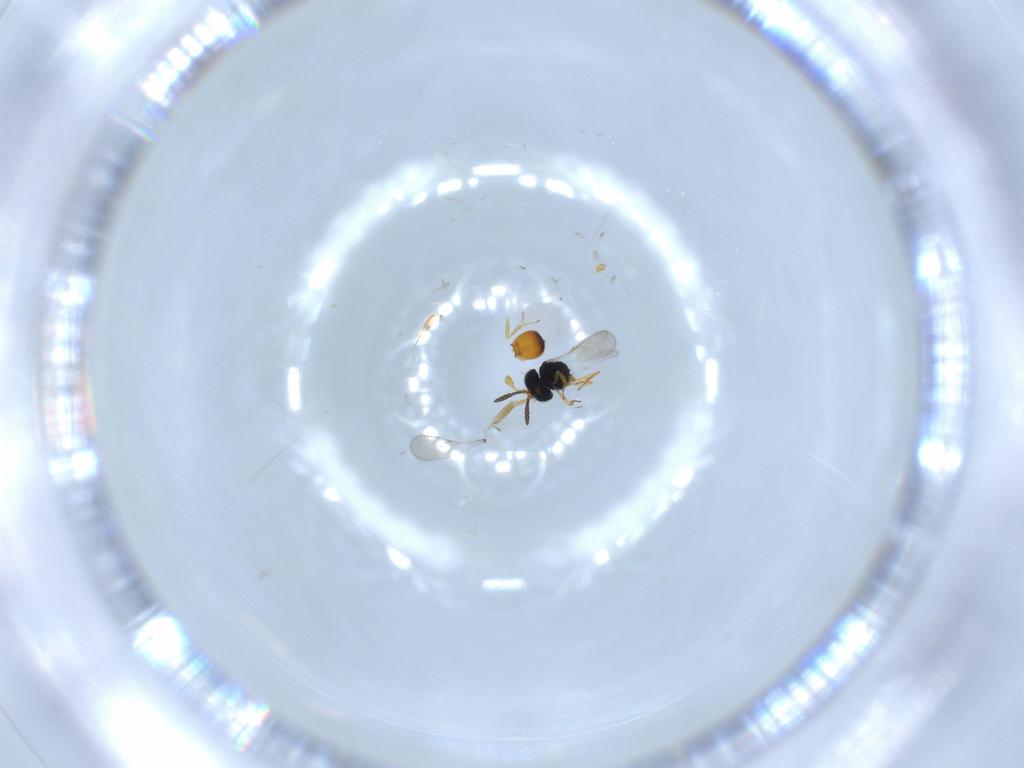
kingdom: Animalia
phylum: Arthropoda
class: Insecta
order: Hymenoptera
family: Scelionidae
